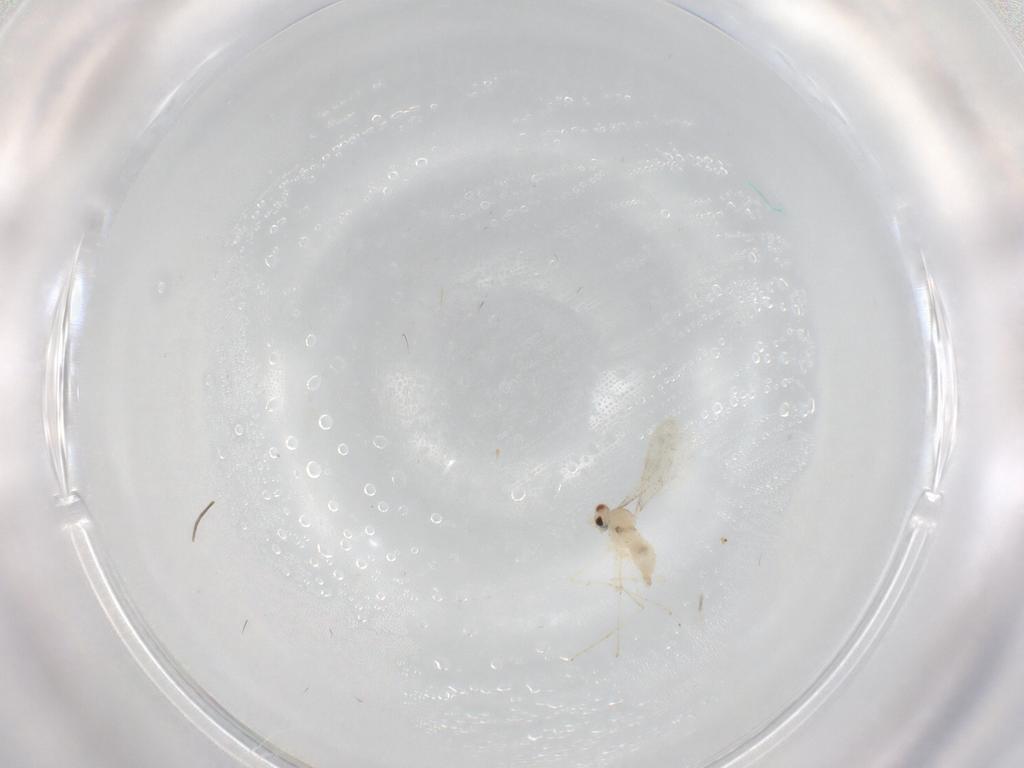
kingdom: Animalia
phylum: Arthropoda
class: Insecta
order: Diptera
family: Cecidomyiidae
